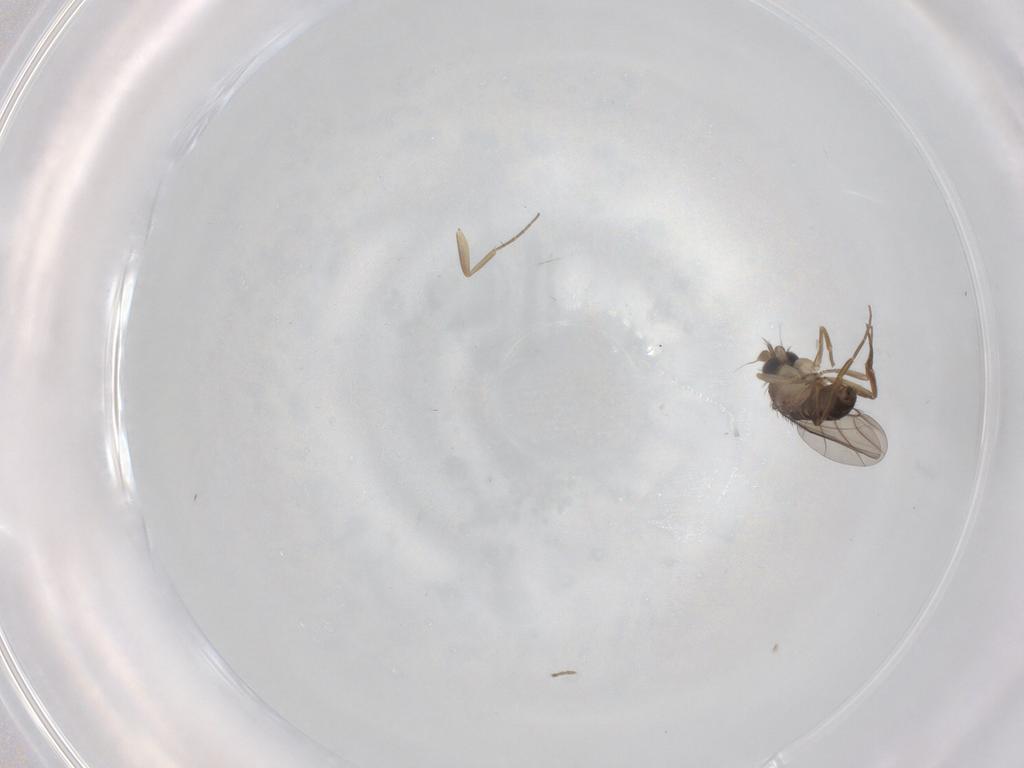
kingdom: Animalia
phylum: Arthropoda
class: Insecta
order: Diptera
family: Phoridae
